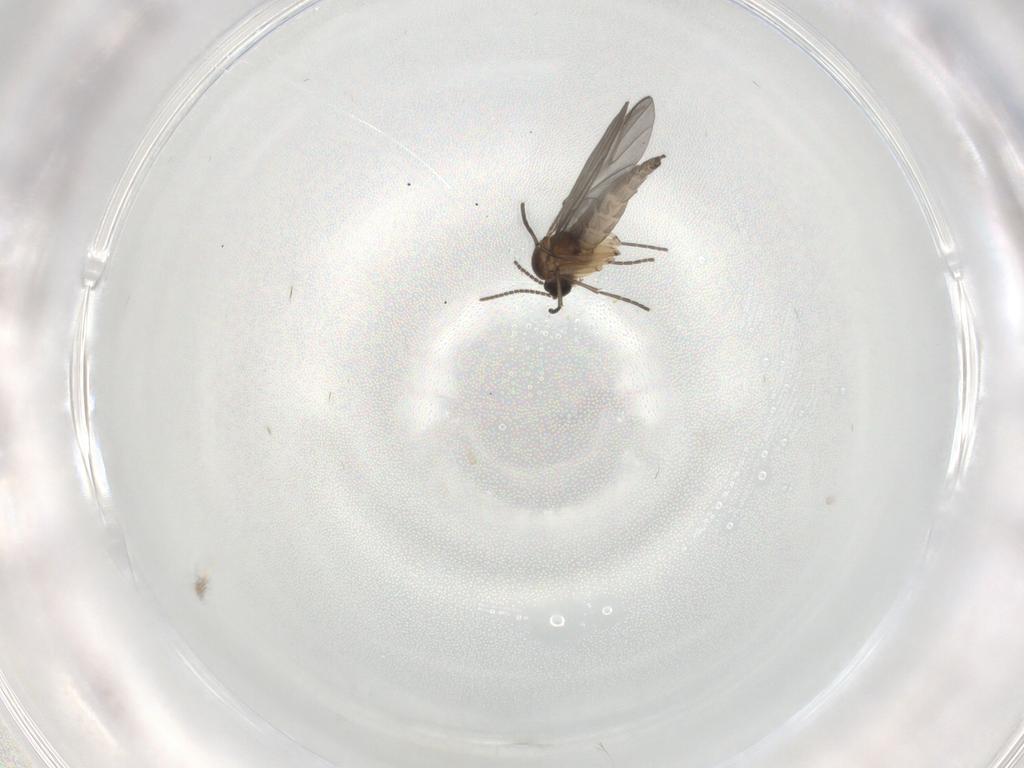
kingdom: Animalia
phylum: Arthropoda
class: Insecta
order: Diptera
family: Sciaridae
